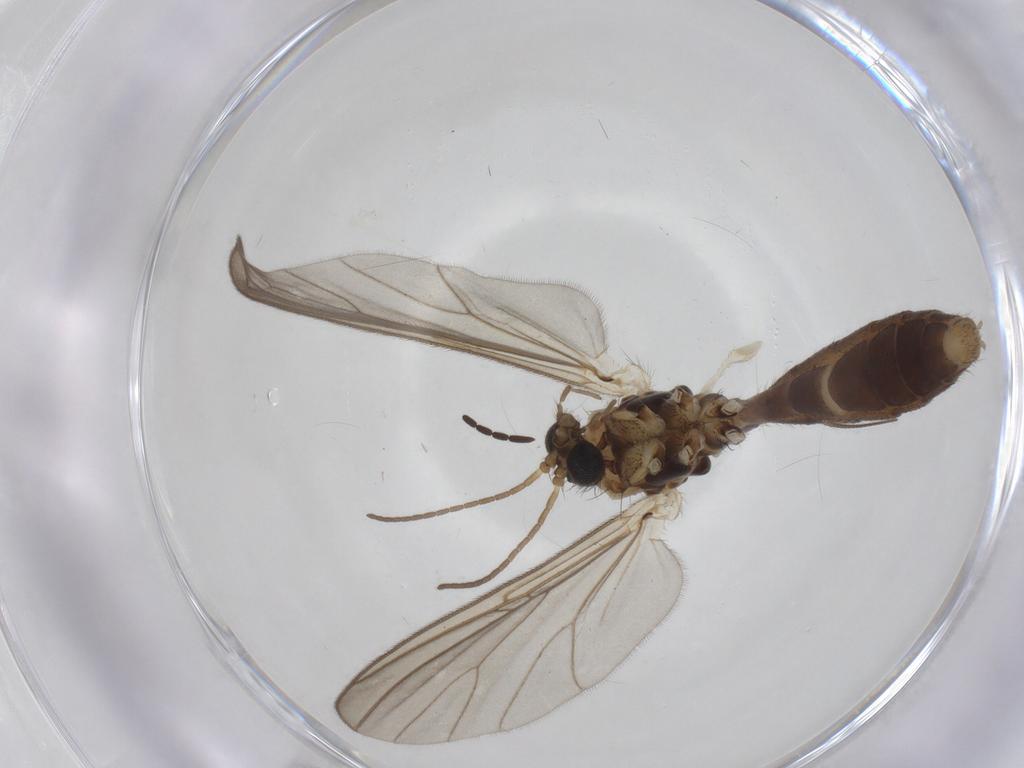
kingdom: Animalia
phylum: Arthropoda
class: Insecta
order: Diptera
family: Mycetophilidae
